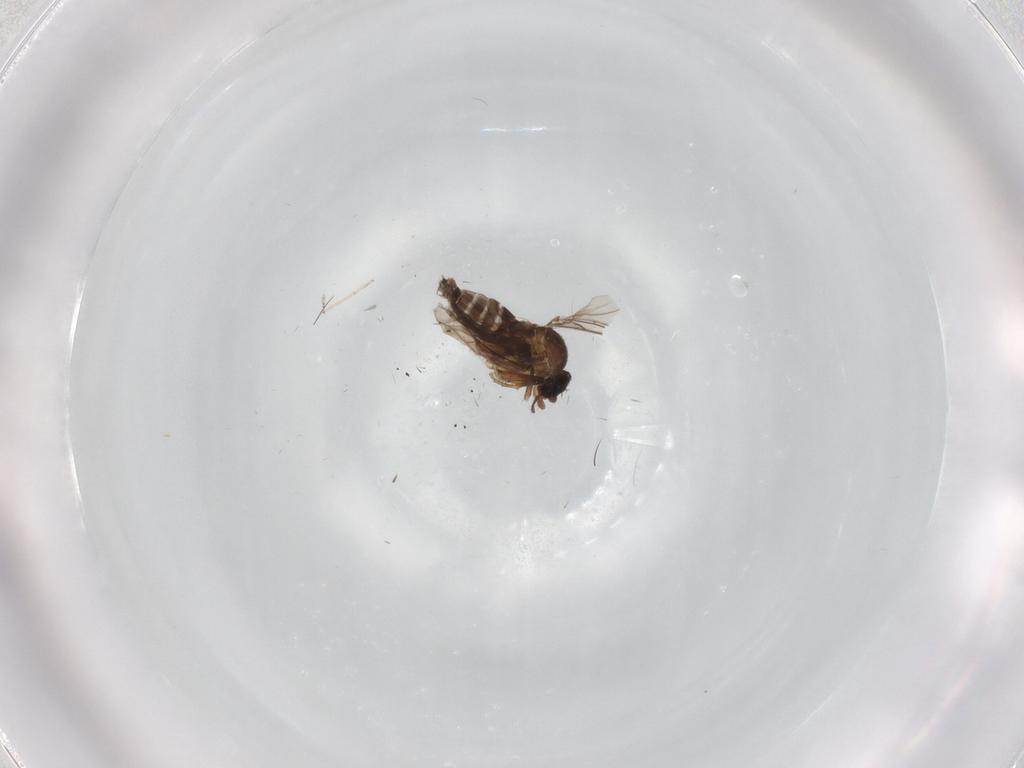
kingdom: Animalia
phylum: Arthropoda
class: Insecta
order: Diptera
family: Phoridae
